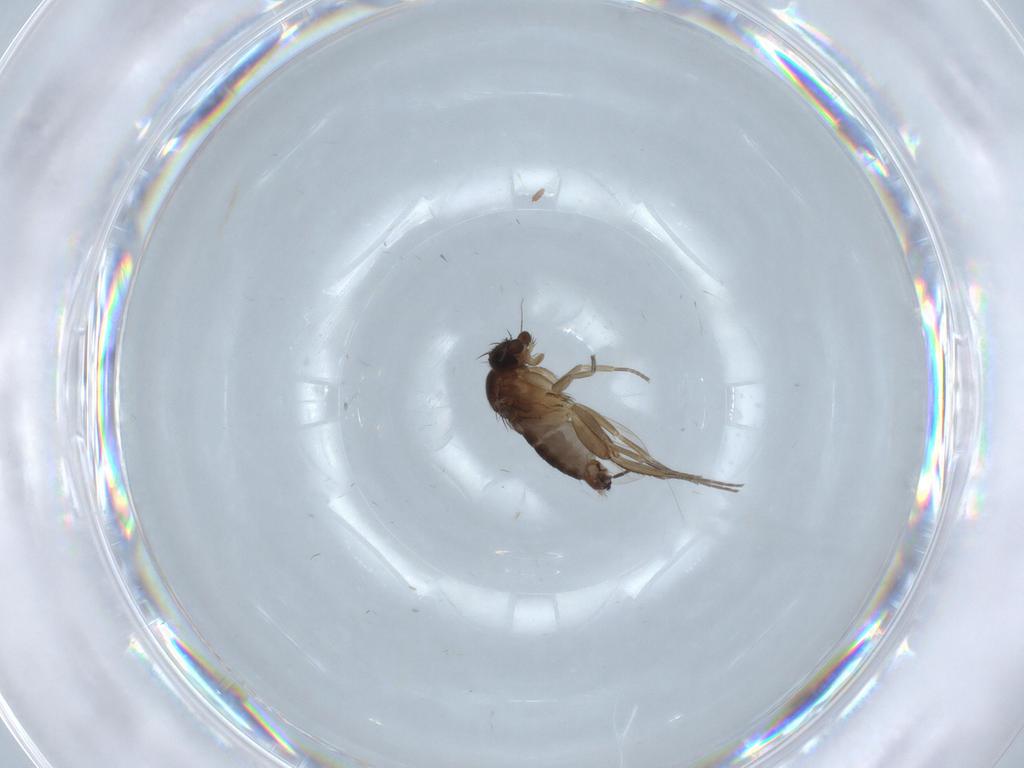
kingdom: Animalia
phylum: Arthropoda
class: Insecta
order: Diptera
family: Phoridae
